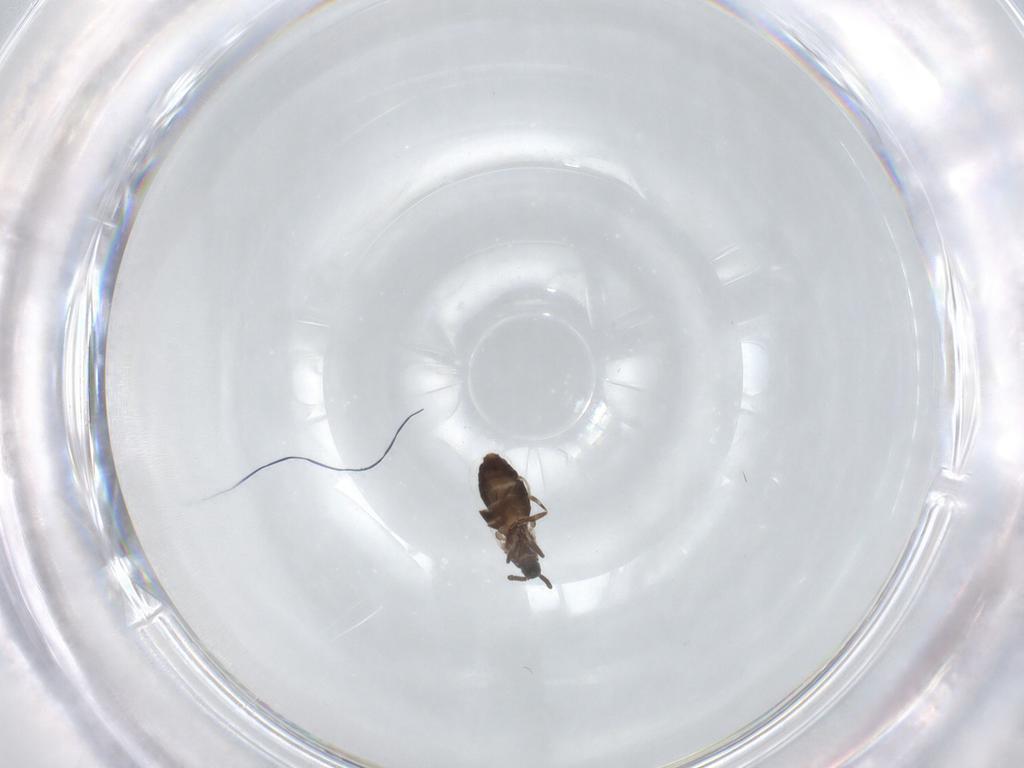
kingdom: Animalia
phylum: Arthropoda
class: Insecta
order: Diptera
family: Scatopsidae
